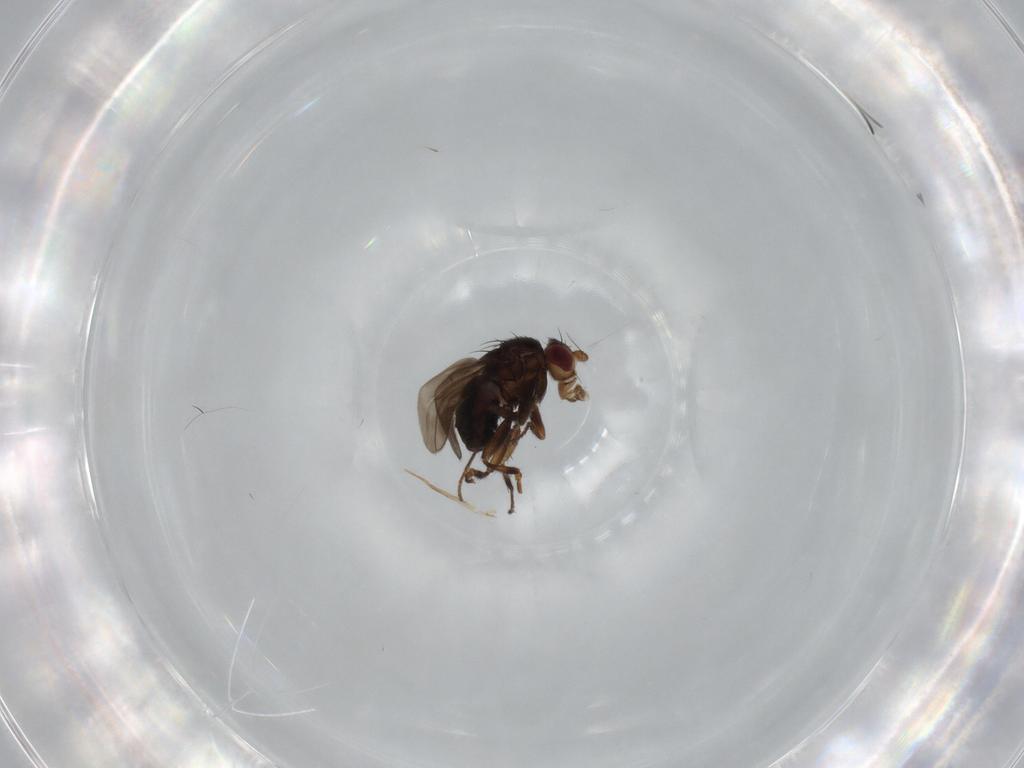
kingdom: Animalia
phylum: Arthropoda
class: Insecta
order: Diptera
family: Sphaeroceridae
